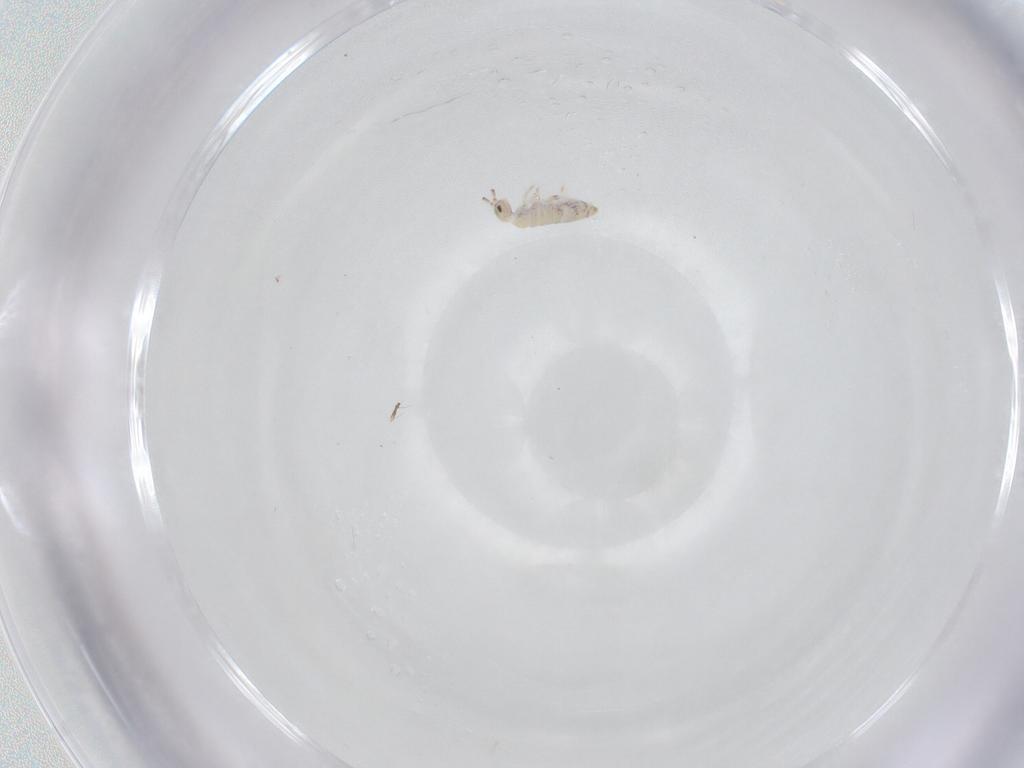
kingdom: Animalia
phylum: Arthropoda
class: Collembola
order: Entomobryomorpha
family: Entomobryidae
